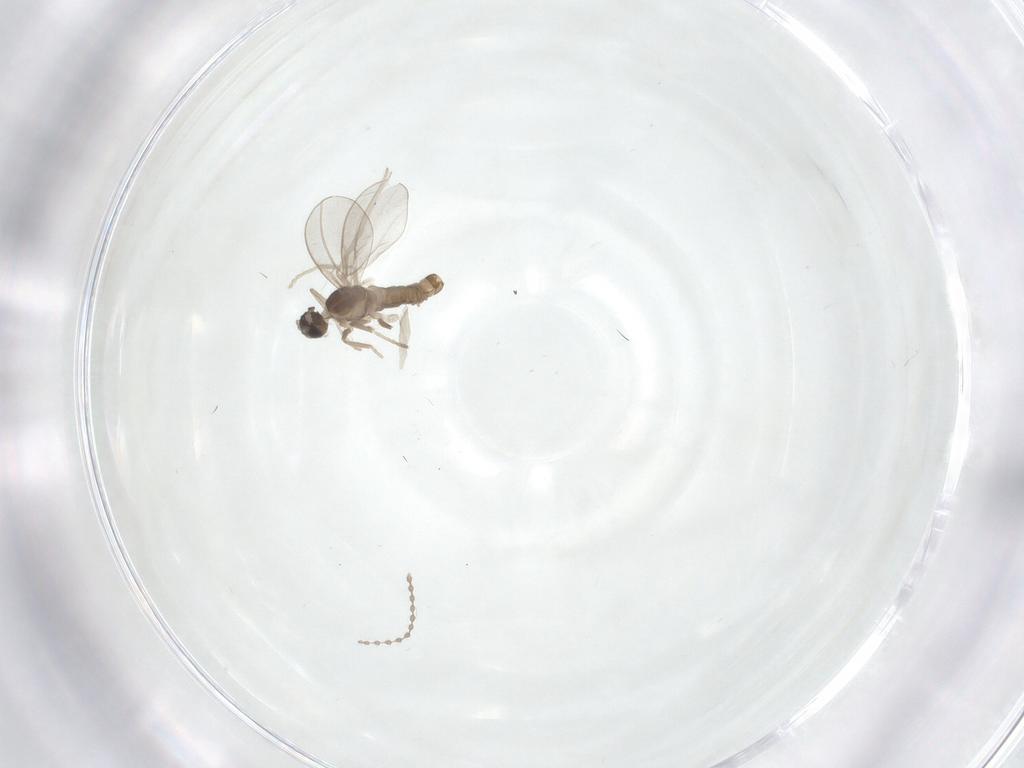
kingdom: Animalia
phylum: Arthropoda
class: Insecta
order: Diptera
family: Cecidomyiidae
